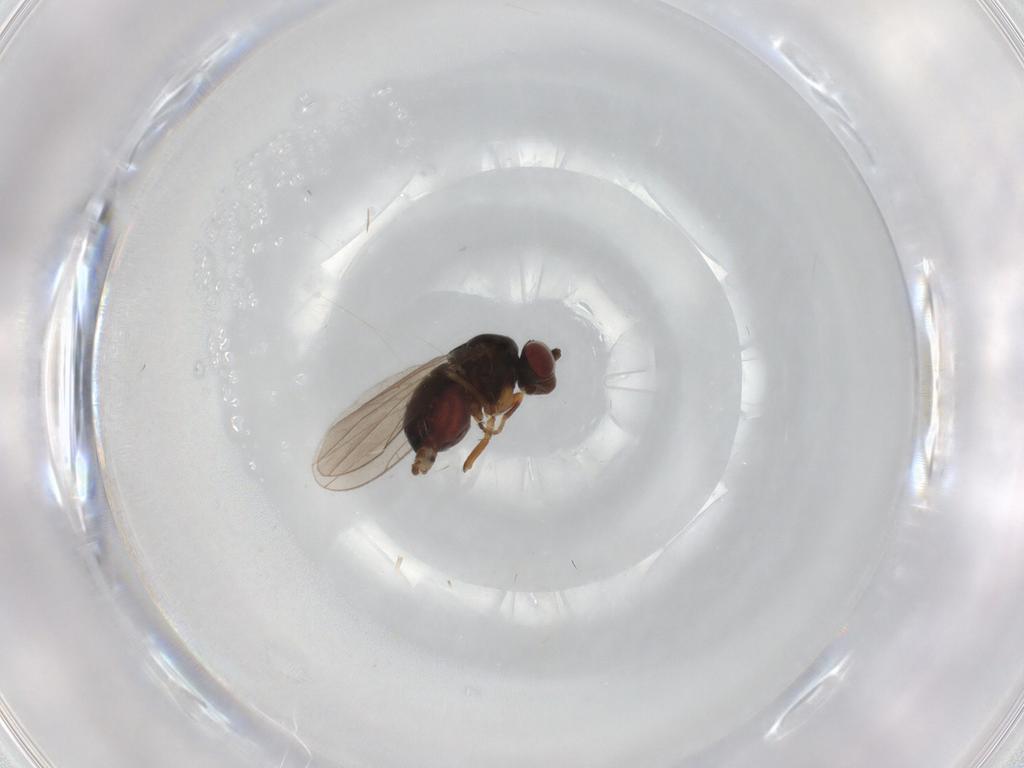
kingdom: Animalia
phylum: Arthropoda
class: Insecta
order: Diptera
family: Ephydridae
